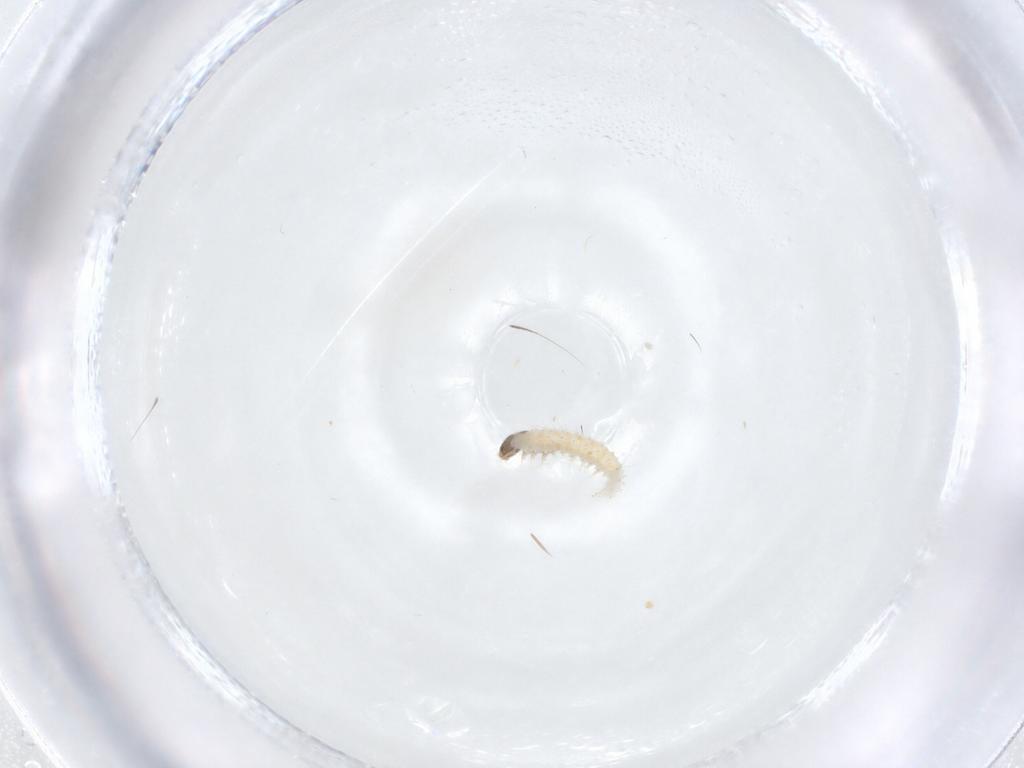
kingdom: Animalia
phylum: Arthropoda
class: Insecta
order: Lepidoptera
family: Crambidae
